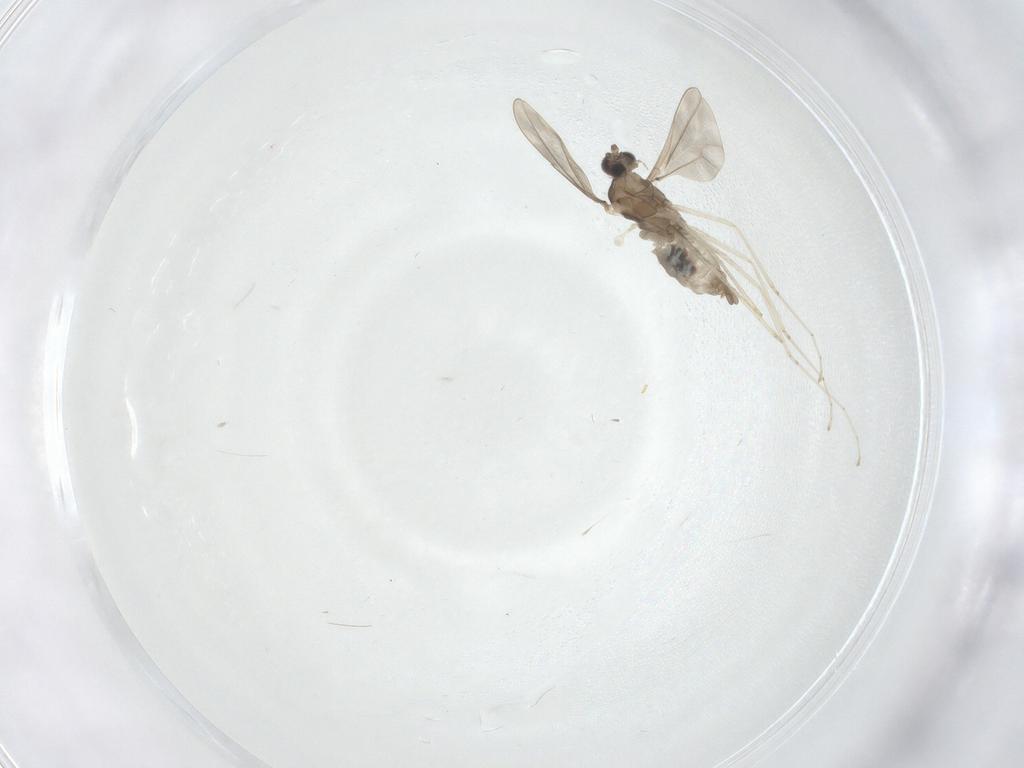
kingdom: Animalia
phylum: Arthropoda
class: Insecta
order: Diptera
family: Cecidomyiidae
